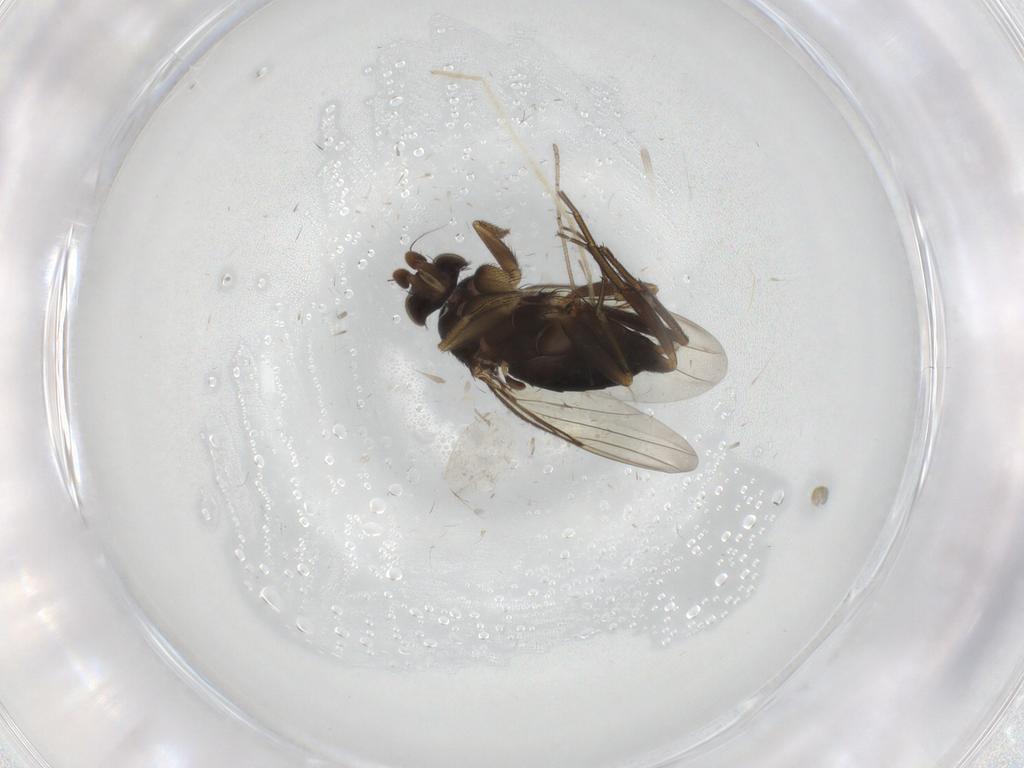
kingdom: Animalia
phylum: Arthropoda
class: Insecta
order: Diptera
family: Phoridae
